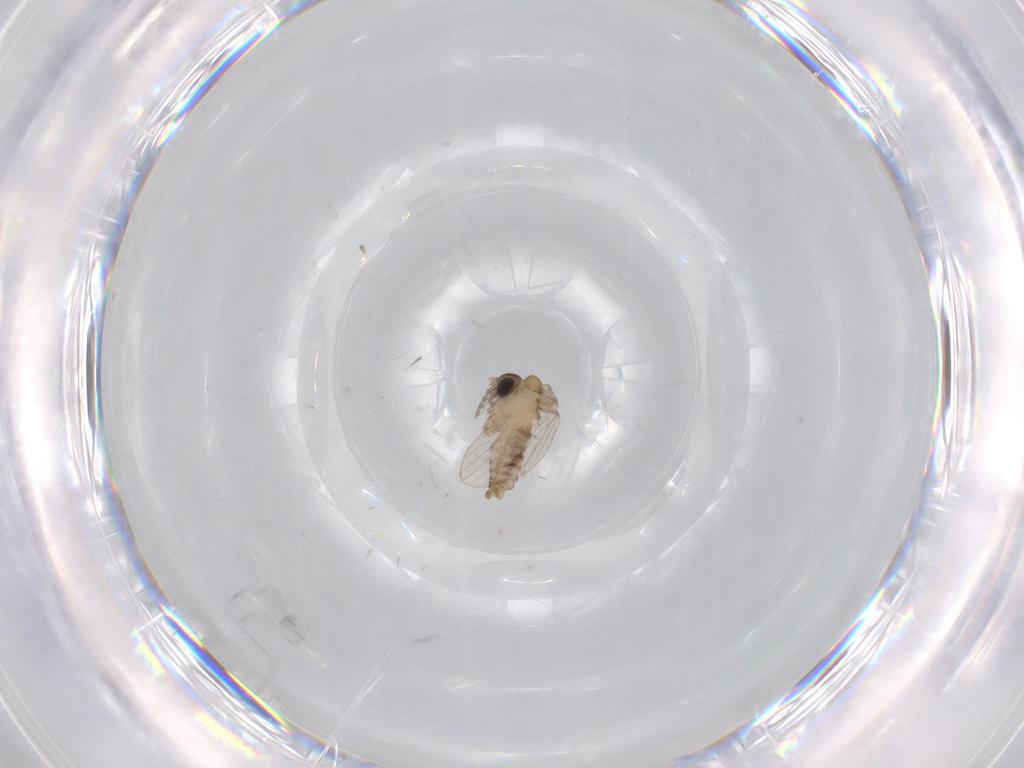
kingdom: Animalia
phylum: Arthropoda
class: Insecta
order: Diptera
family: Psychodidae
